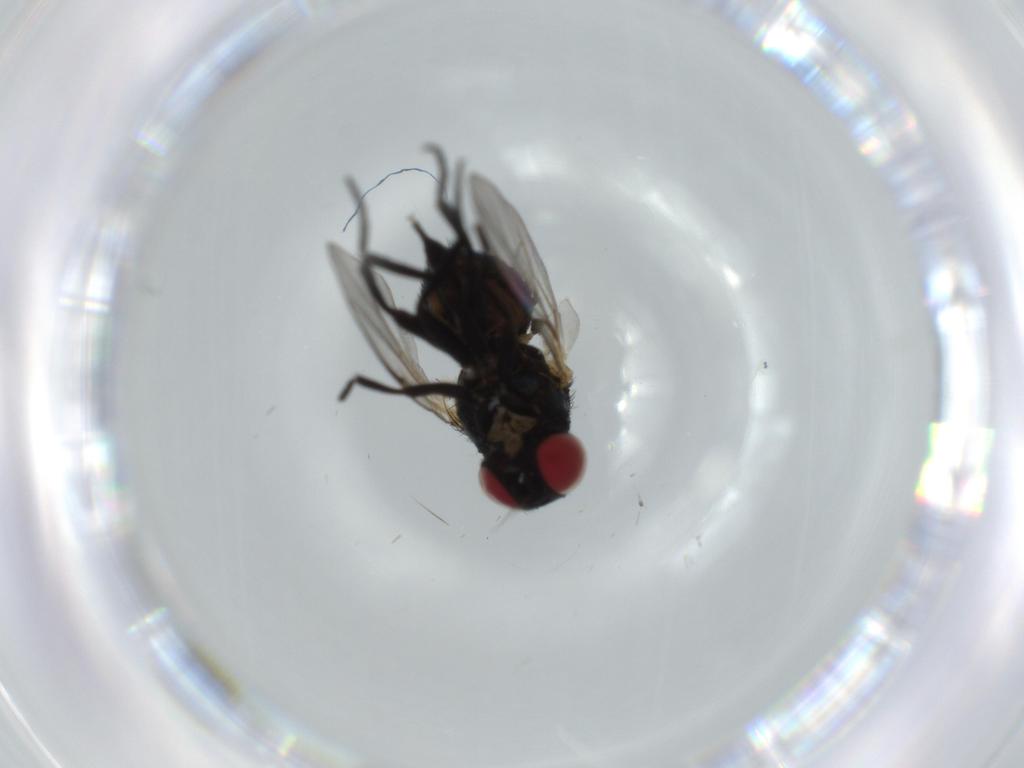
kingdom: Animalia
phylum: Arthropoda
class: Insecta
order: Diptera
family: Agromyzidae
